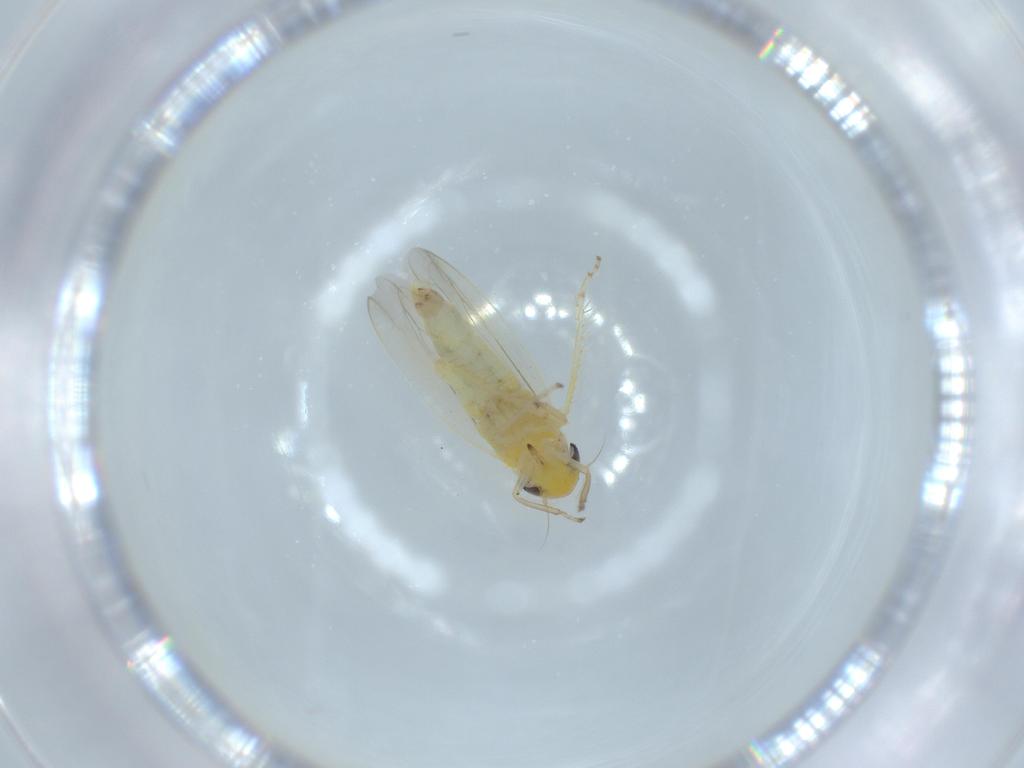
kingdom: Animalia
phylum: Arthropoda
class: Insecta
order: Hemiptera
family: Cicadellidae
